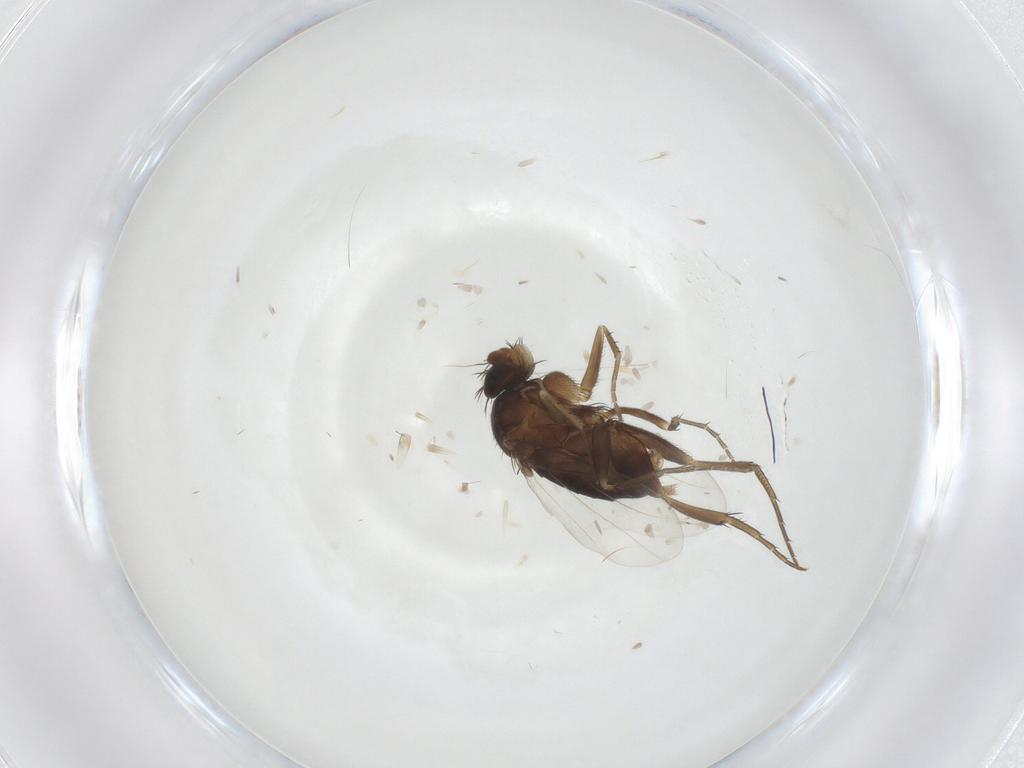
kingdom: Animalia
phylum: Arthropoda
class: Insecta
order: Diptera
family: Phoridae
